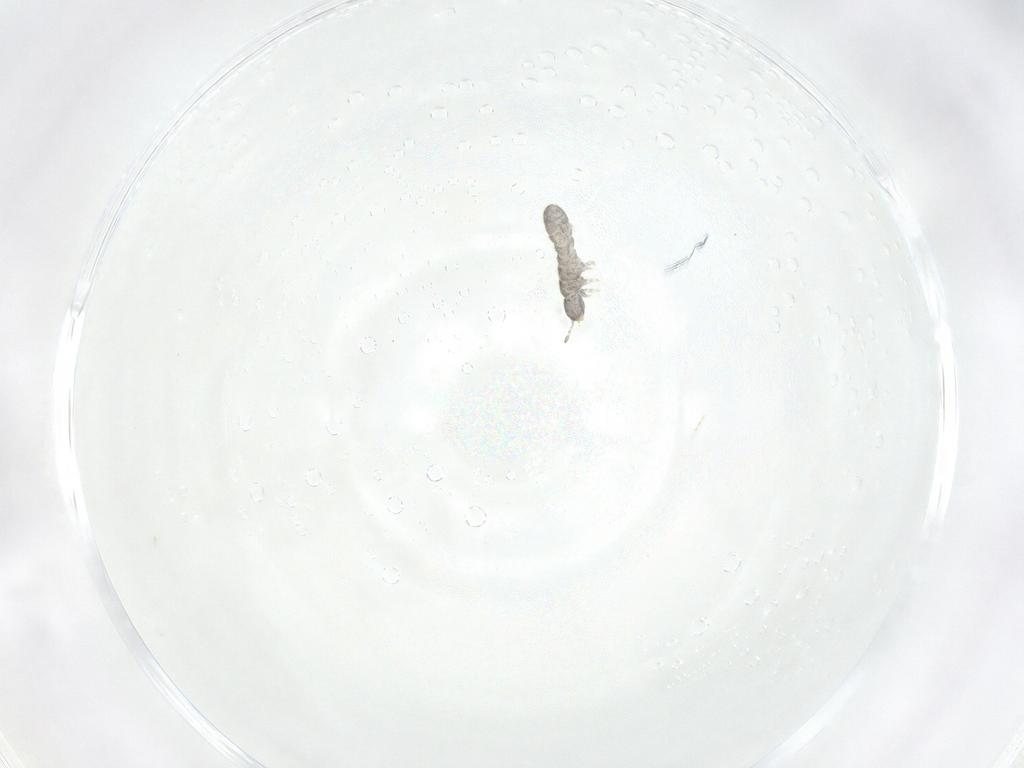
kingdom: Animalia
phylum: Arthropoda
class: Collembola
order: Entomobryomorpha
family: Isotomidae
